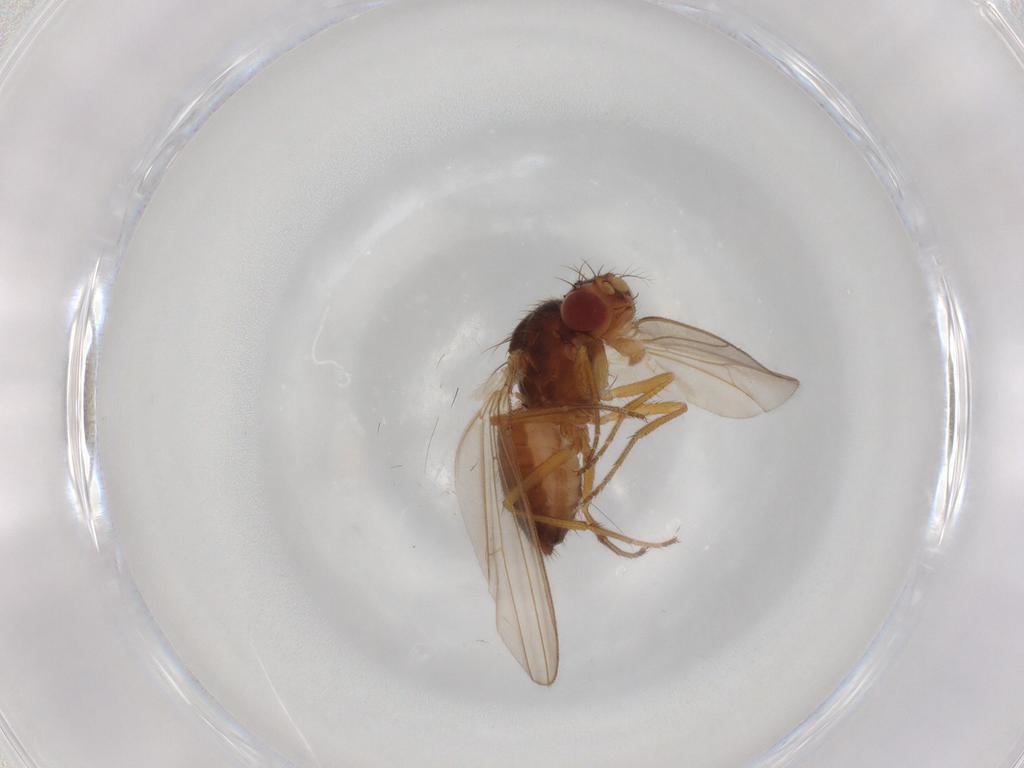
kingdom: Animalia
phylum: Arthropoda
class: Insecta
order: Diptera
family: Drosophilidae
